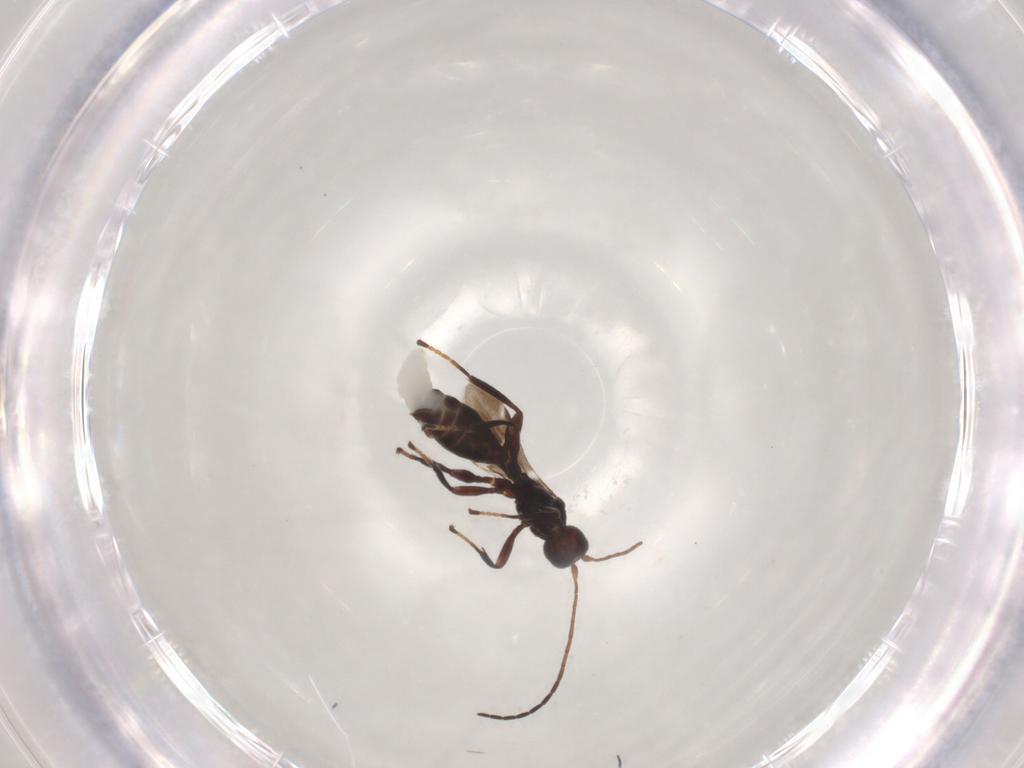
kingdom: Animalia
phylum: Arthropoda
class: Insecta
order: Hymenoptera
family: Braconidae
